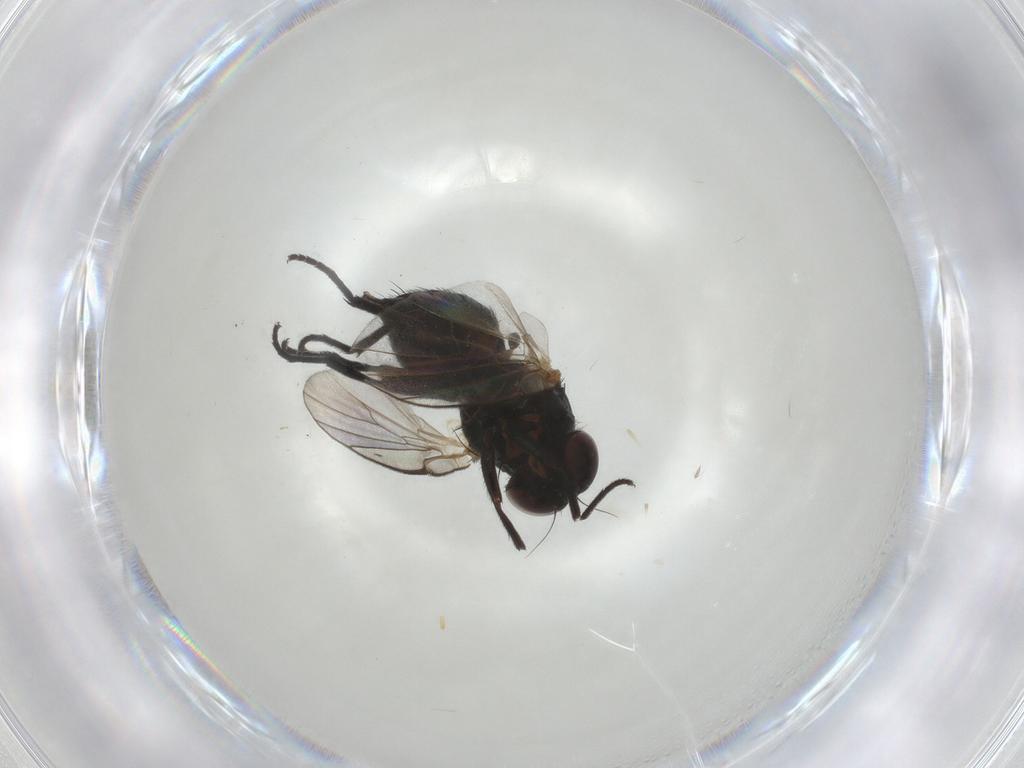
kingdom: Animalia
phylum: Arthropoda
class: Insecta
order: Diptera
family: Agromyzidae
